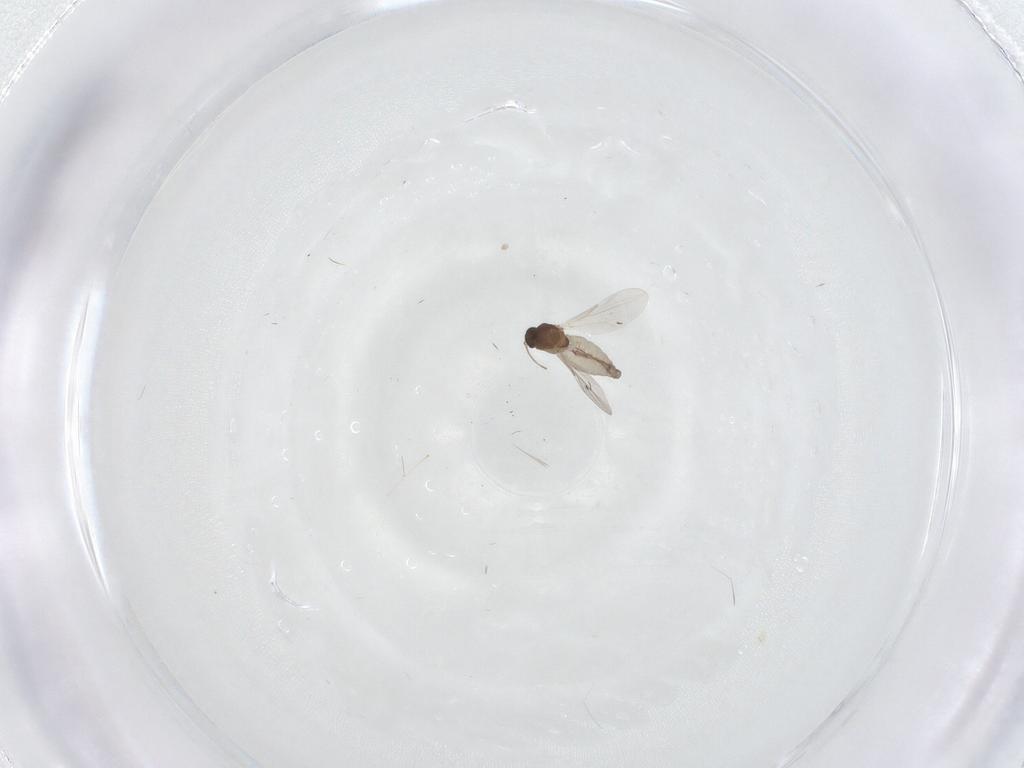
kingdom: Animalia
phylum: Arthropoda
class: Insecta
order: Diptera
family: Ceratopogonidae
